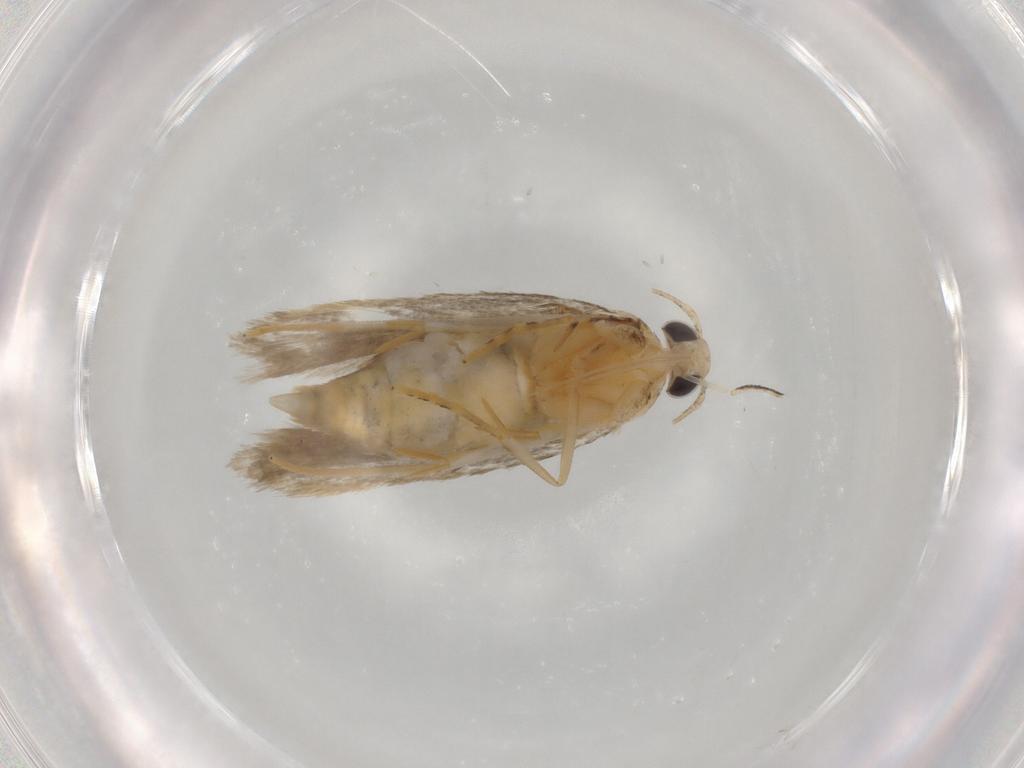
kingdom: Animalia
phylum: Arthropoda
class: Insecta
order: Lepidoptera
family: Autostichidae
